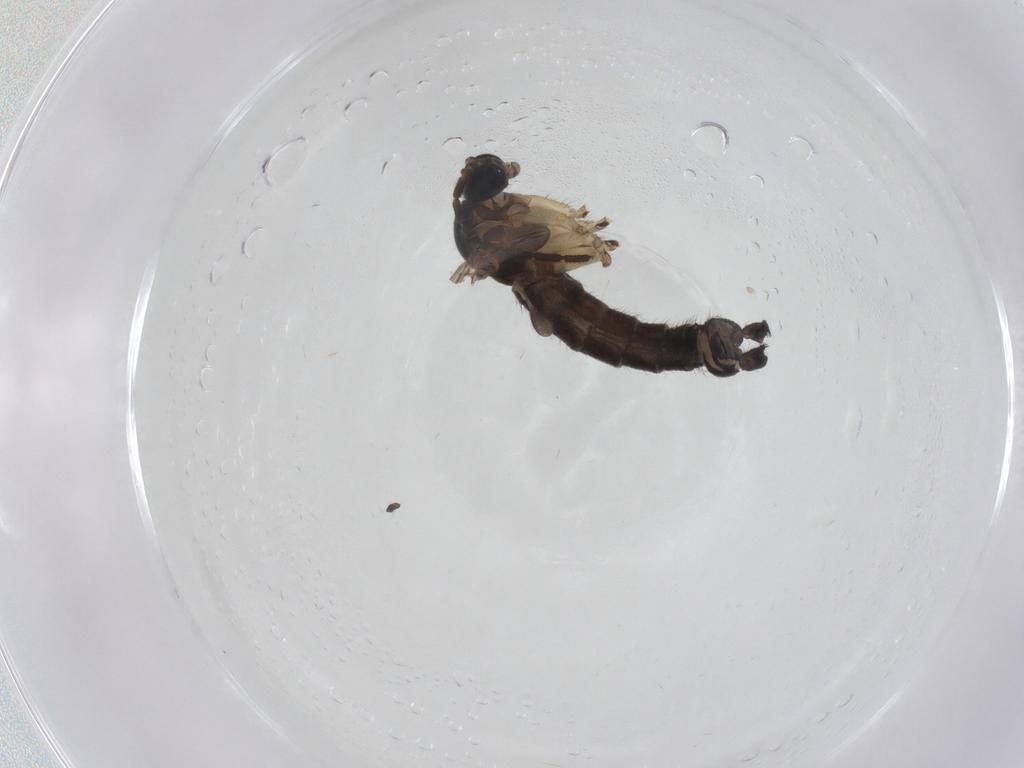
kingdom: Animalia
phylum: Arthropoda
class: Insecta
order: Diptera
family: Sciaridae
